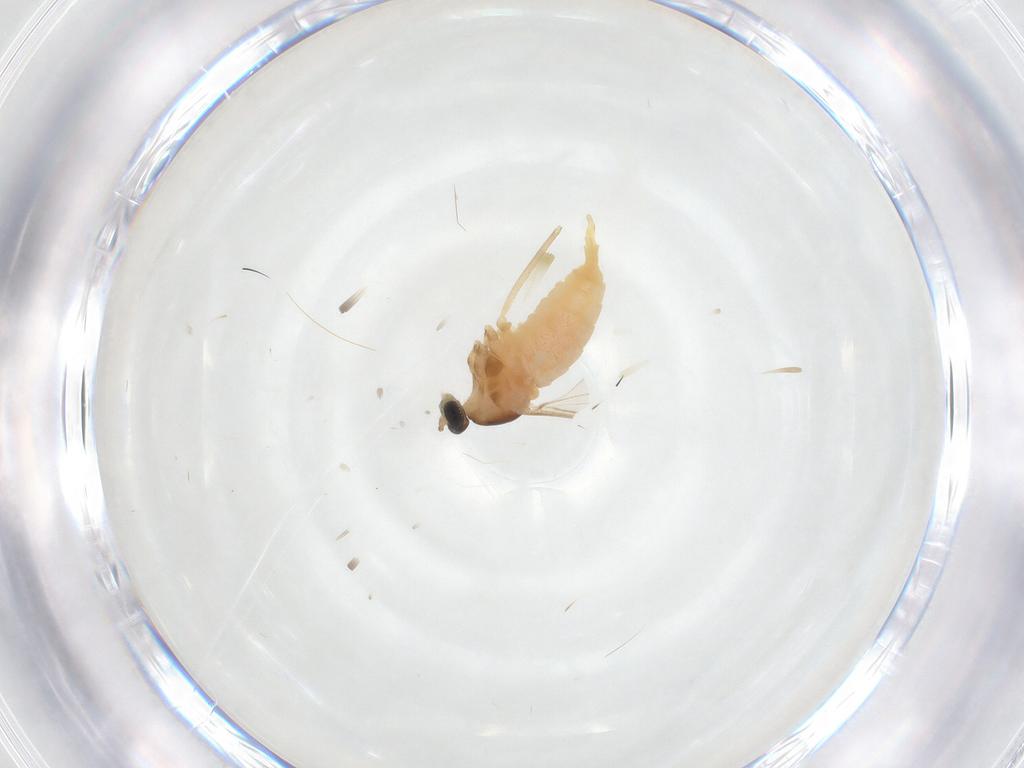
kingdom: Animalia
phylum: Arthropoda
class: Insecta
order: Diptera
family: Cecidomyiidae
